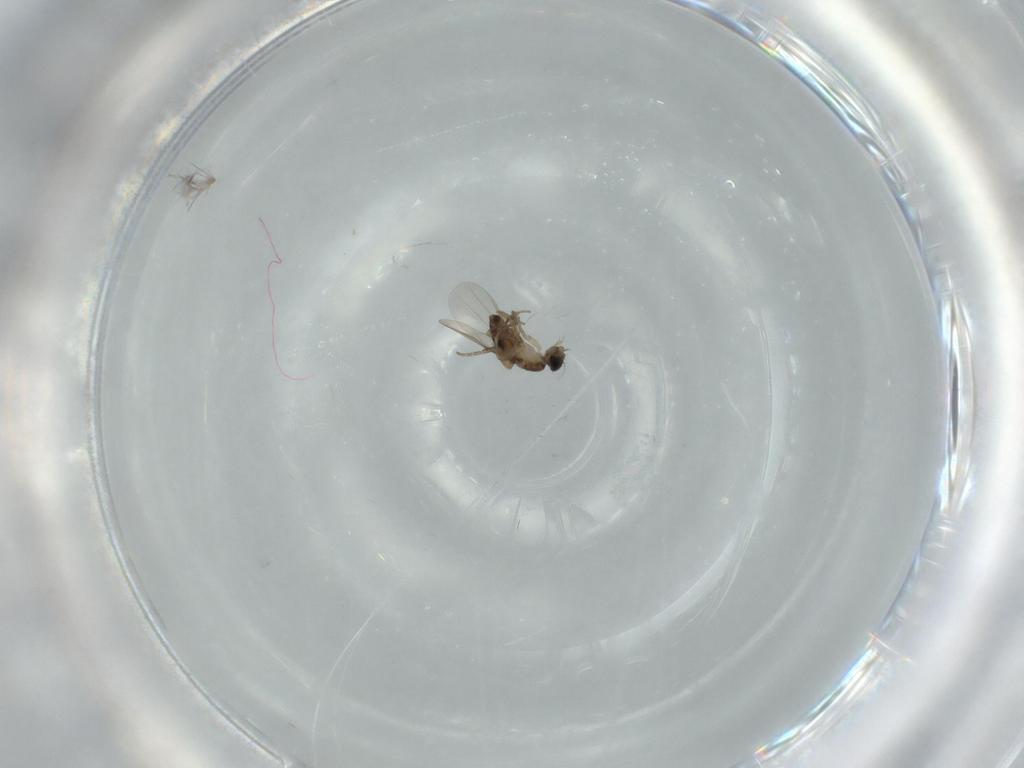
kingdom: Animalia
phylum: Arthropoda
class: Insecta
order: Diptera
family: Phoridae
